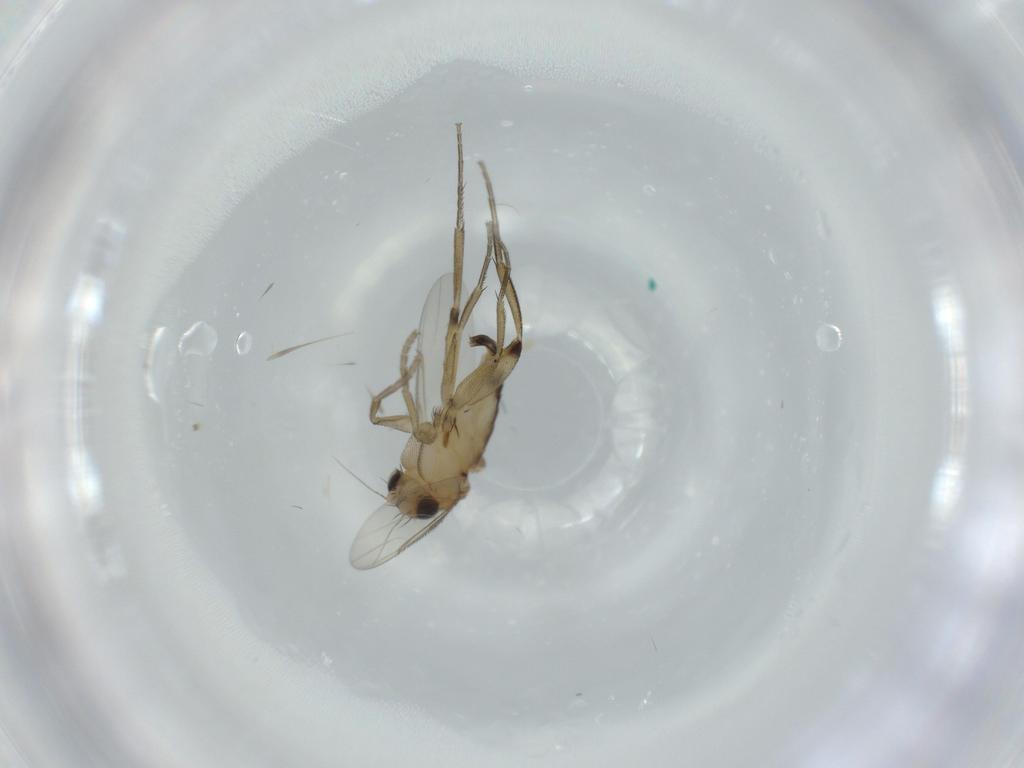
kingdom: Animalia
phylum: Arthropoda
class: Insecta
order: Diptera
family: Phoridae
